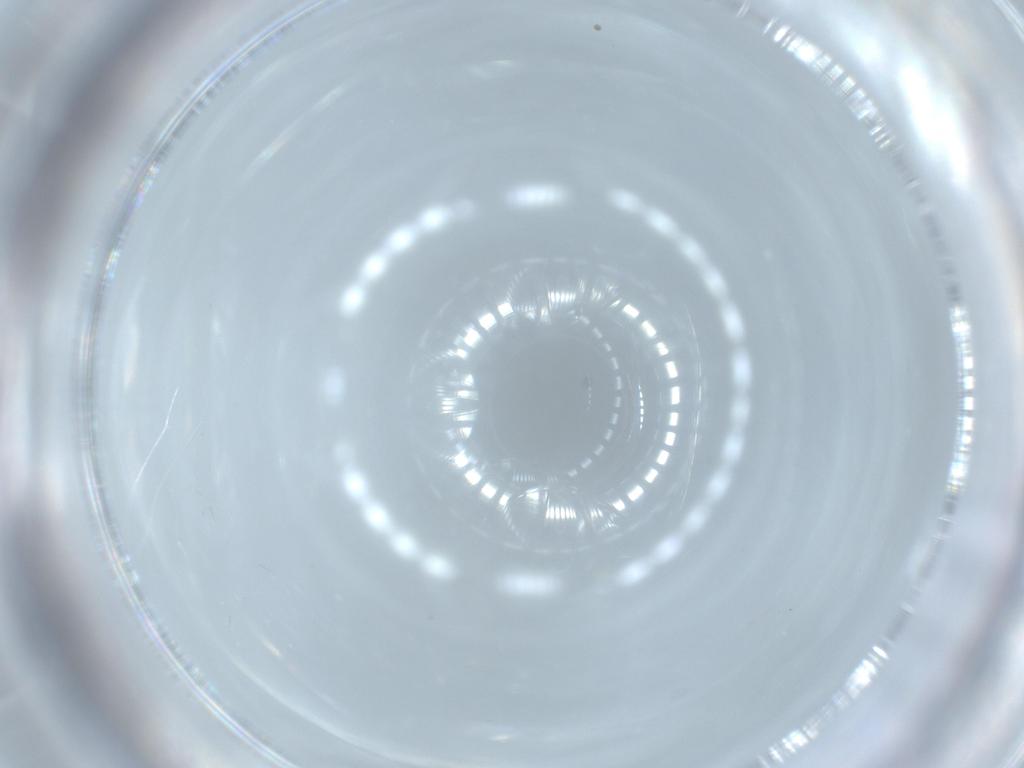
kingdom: Animalia
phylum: Arthropoda
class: Insecta
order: Diptera
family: Ceratopogonidae
